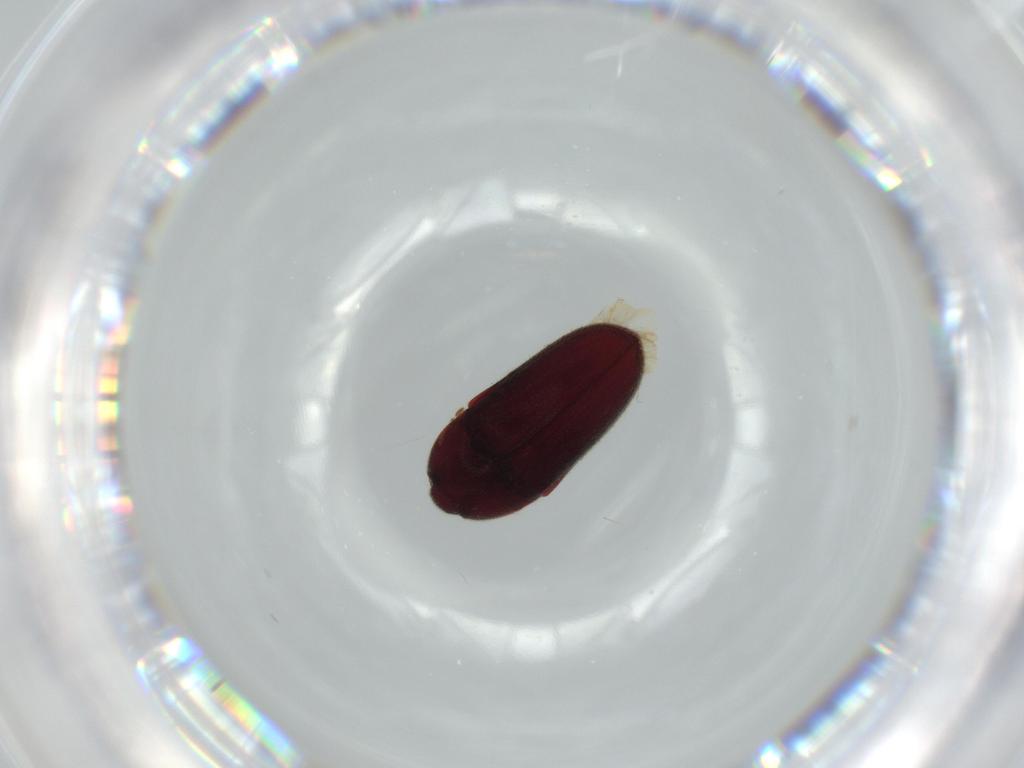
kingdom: Animalia
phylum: Arthropoda
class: Insecta
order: Coleoptera
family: Throscidae
